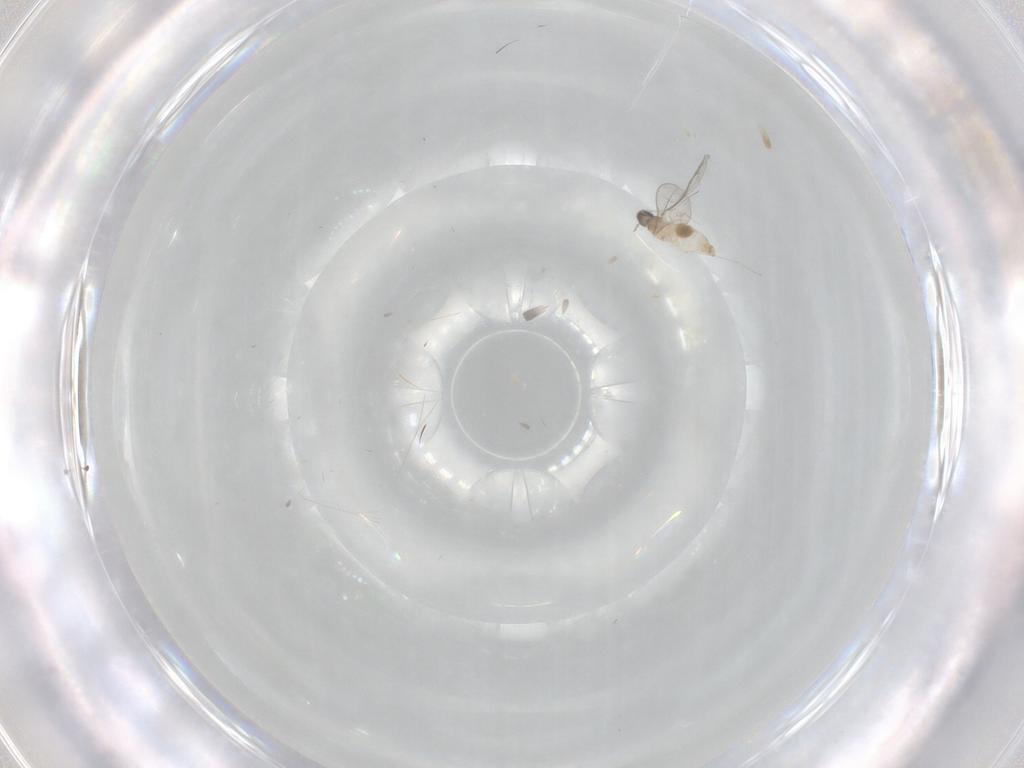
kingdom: Animalia
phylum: Arthropoda
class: Insecta
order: Diptera
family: Cecidomyiidae
